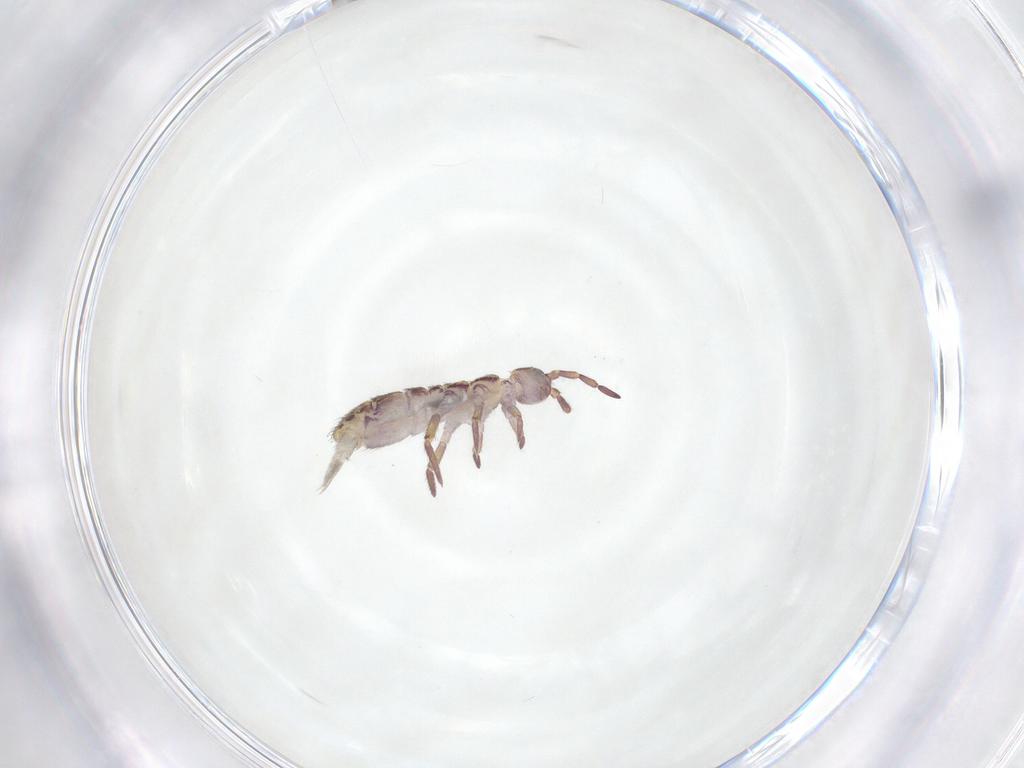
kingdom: Animalia
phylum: Arthropoda
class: Collembola
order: Entomobryomorpha
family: Isotomidae
